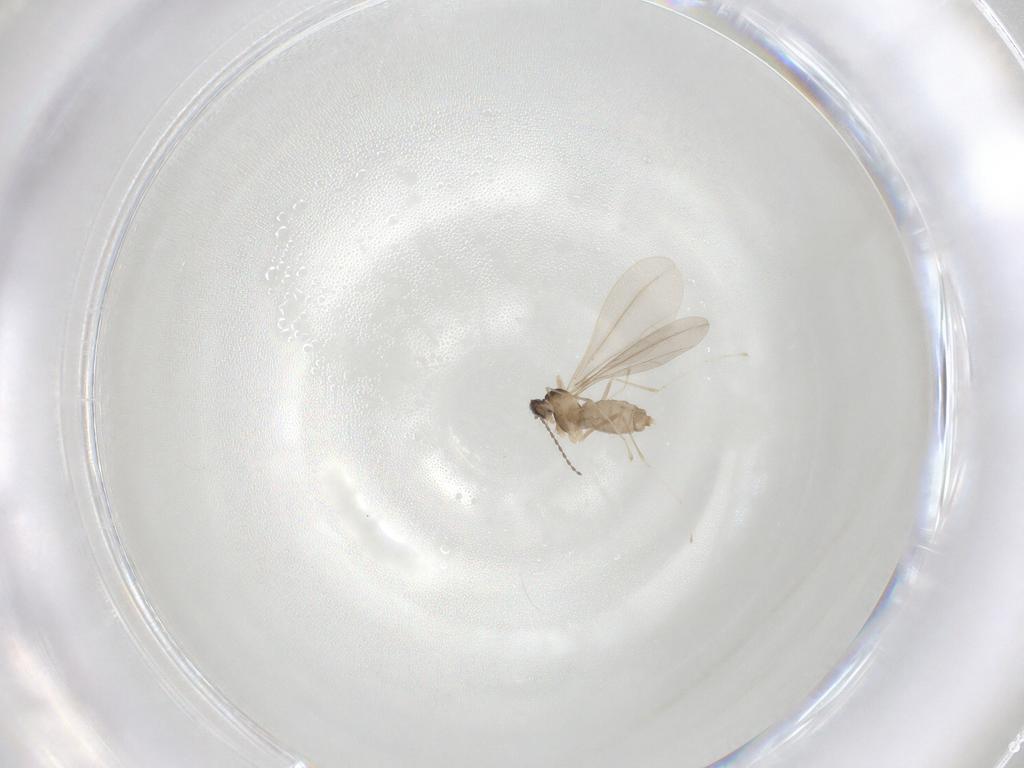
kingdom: Animalia
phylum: Arthropoda
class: Insecta
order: Diptera
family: Cecidomyiidae
